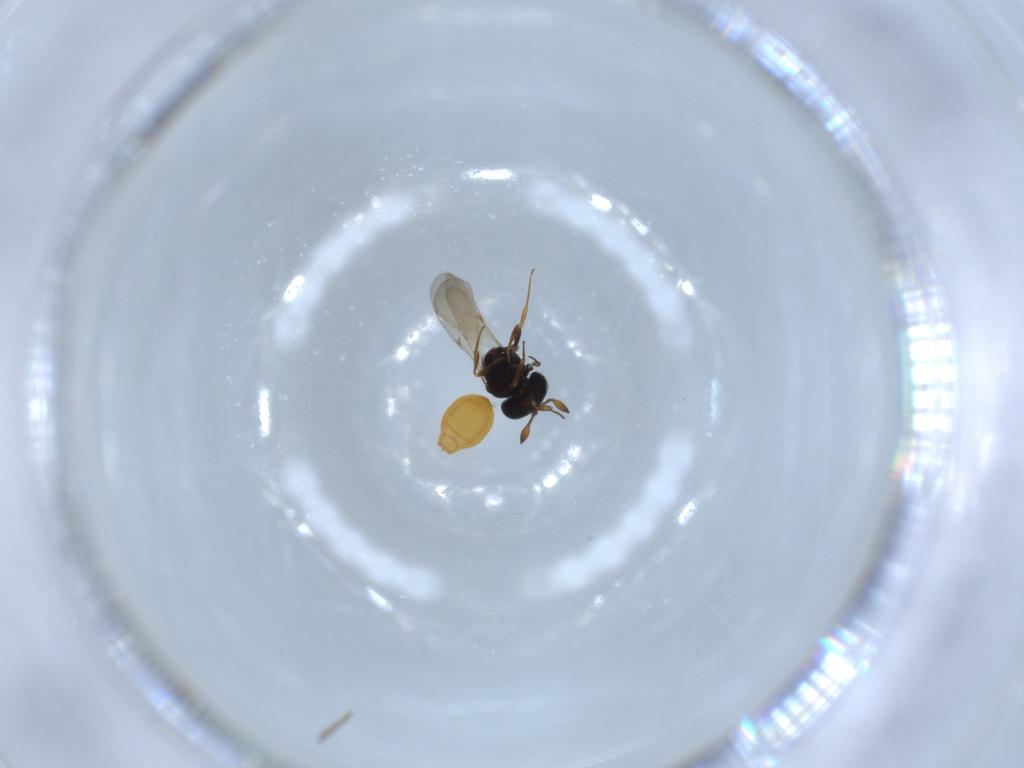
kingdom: Animalia
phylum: Arthropoda
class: Insecta
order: Hymenoptera
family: Scelionidae
